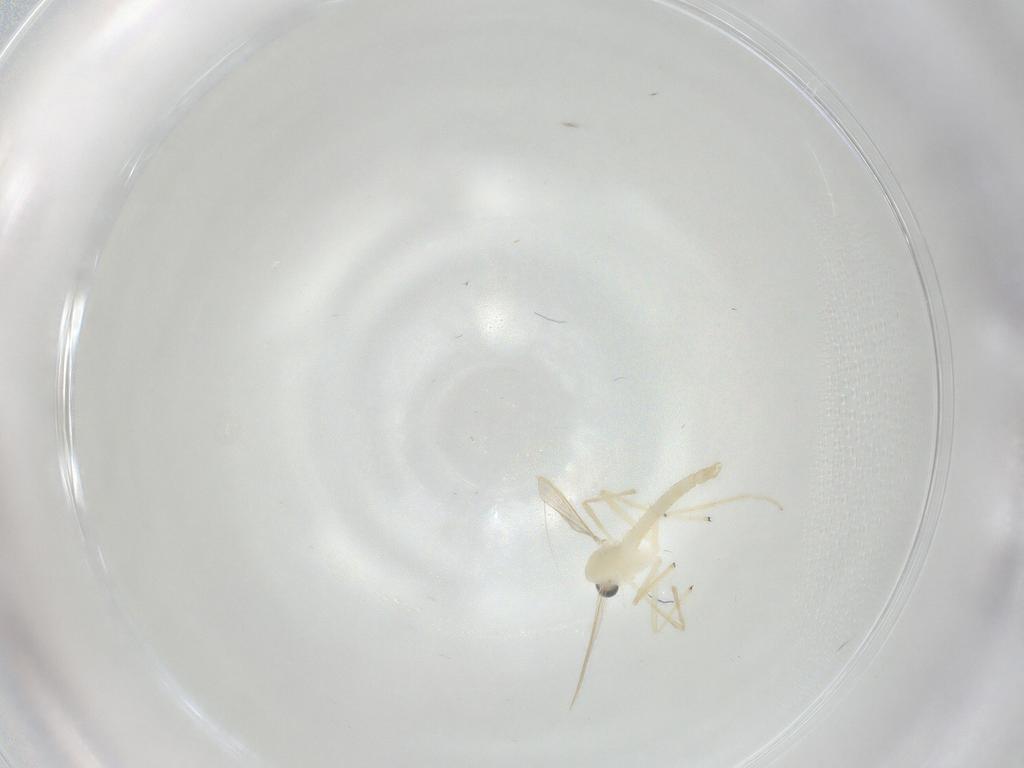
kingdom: Animalia
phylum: Arthropoda
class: Insecta
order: Diptera
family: Chironomidae
